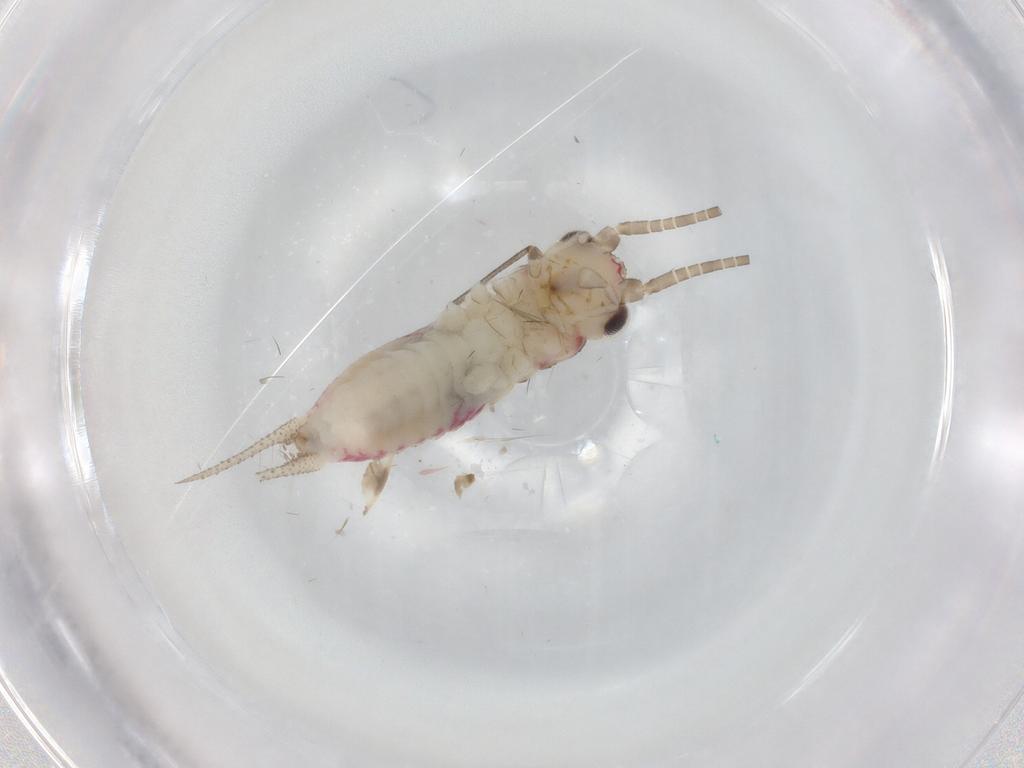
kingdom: Animalia
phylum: Arthropoda
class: Insecta
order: Orthoptera
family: Trigonidiidae
